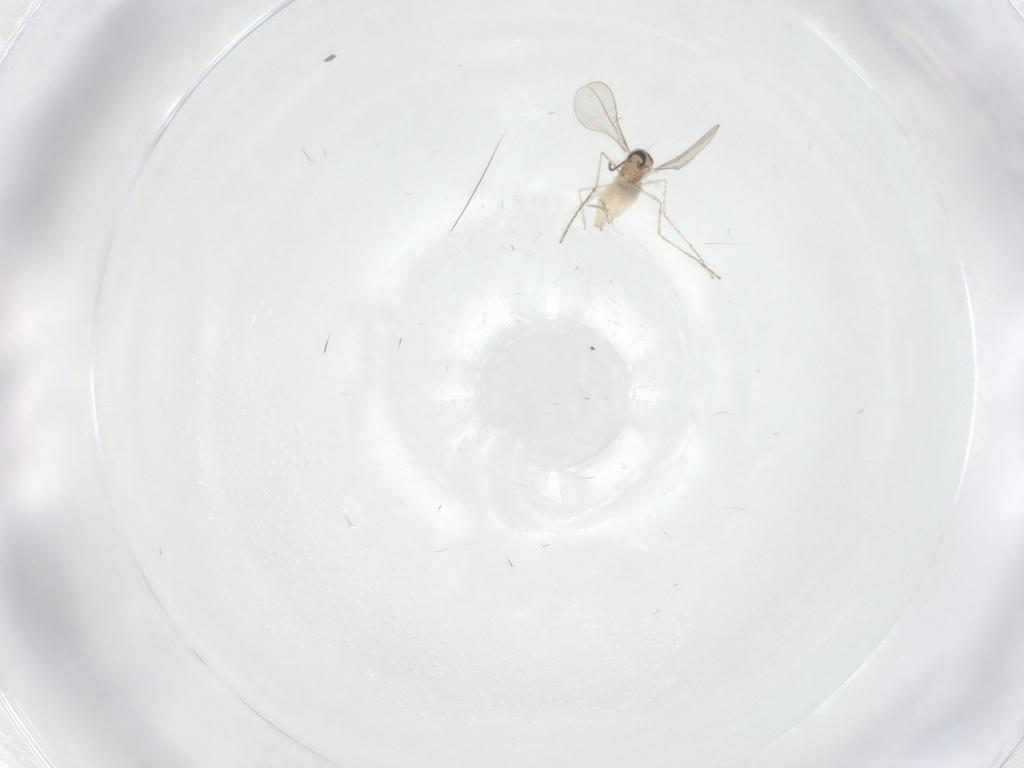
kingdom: Animalia
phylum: Arthropoda
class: Insecta
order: Diptera
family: Cecidomyiidae
